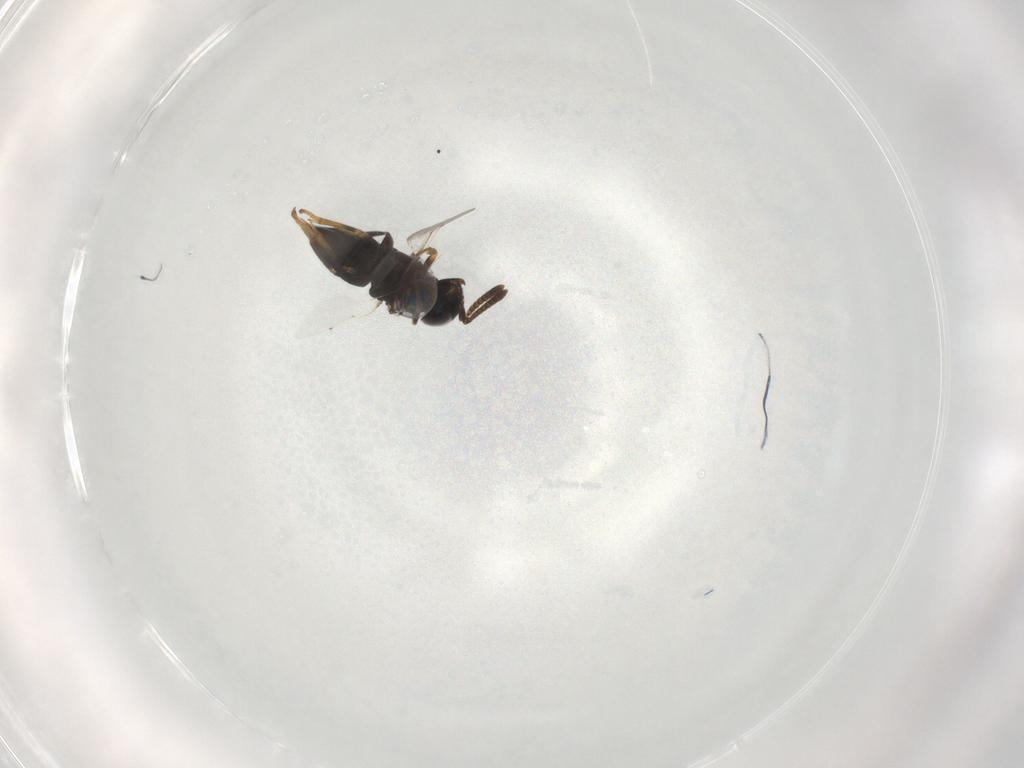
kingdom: Animalia
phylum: Arthropoda
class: Insecta
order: Hymenoptera
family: Encyrtidae
